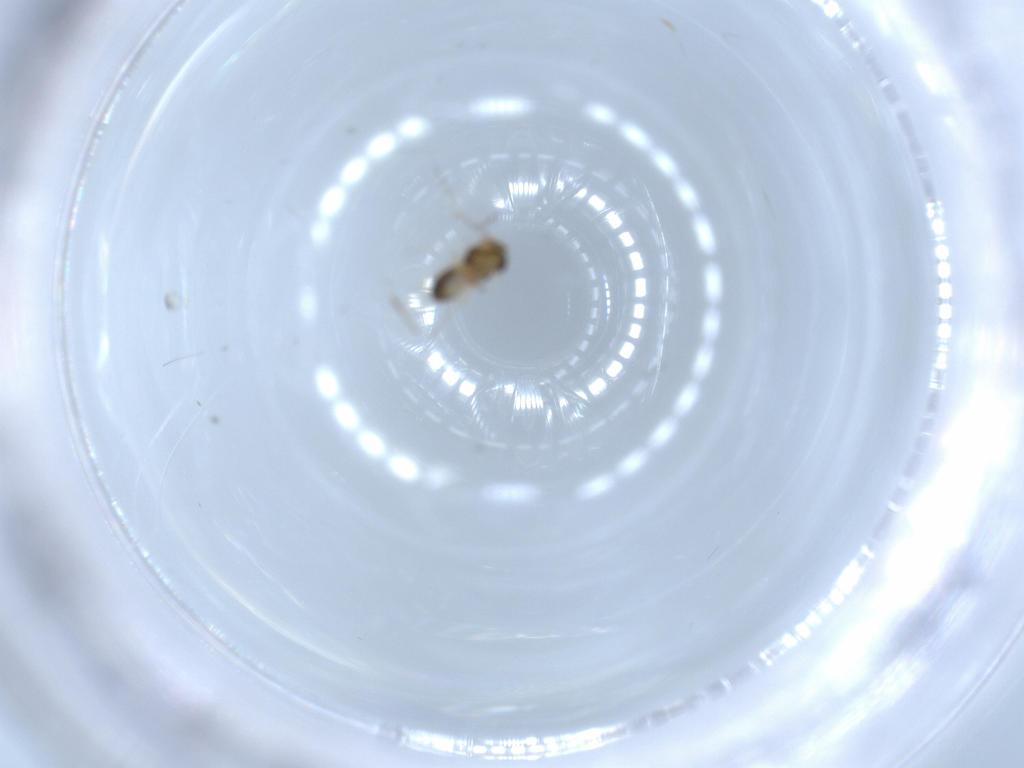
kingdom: Animalia
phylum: Arthropoda
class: Insecta
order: Diptera
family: Chironomidae
